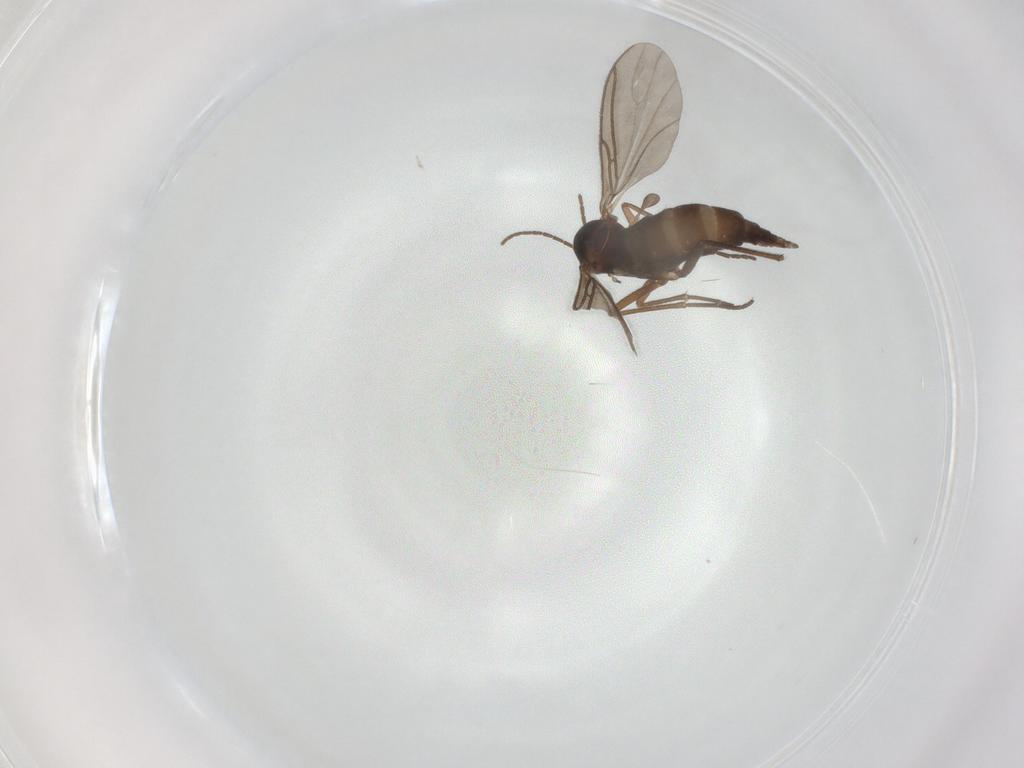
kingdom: Animalia
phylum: Arthropoda
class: Insecta
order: Diptera
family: Sciaridae
